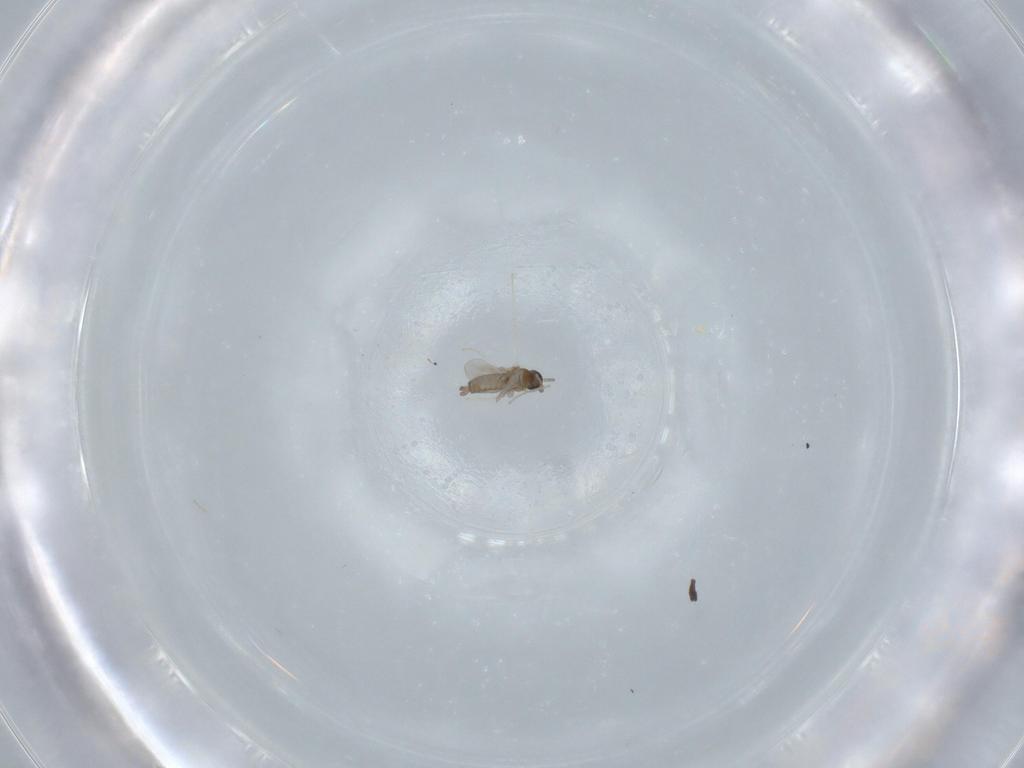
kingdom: Animalia
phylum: Arthropoda
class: Insecta
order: Diptera
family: Cecidomyiidae
